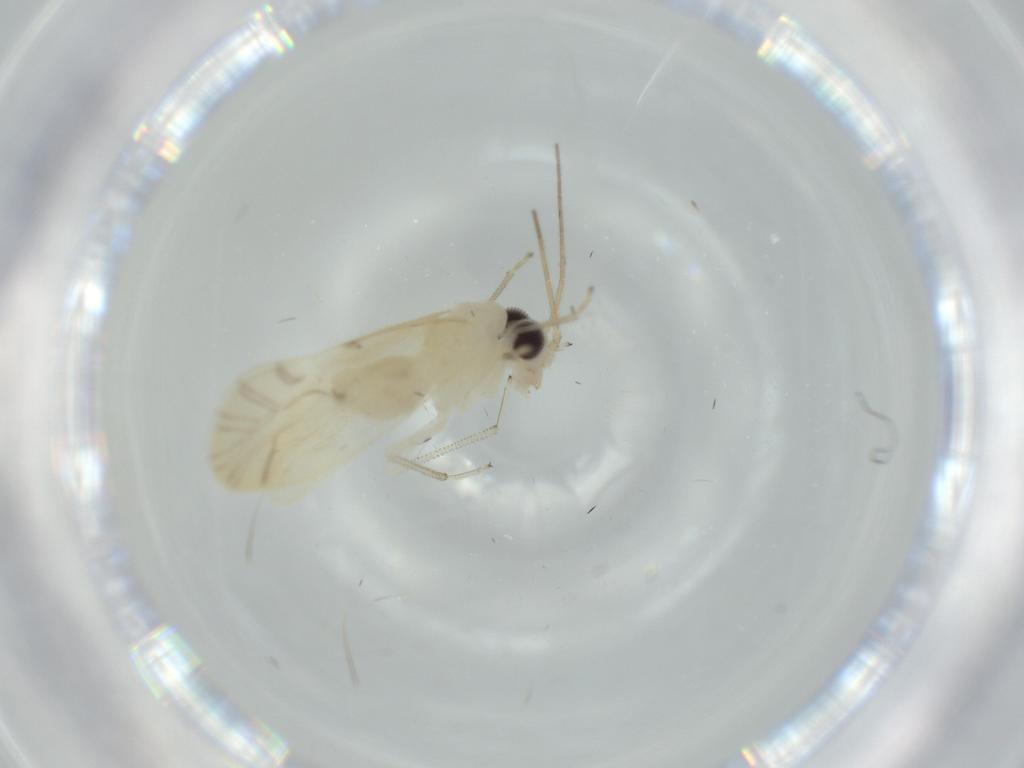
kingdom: Animalia
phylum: Arthropoda
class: Insecta
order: Psocodea
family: Caeciliusidae
